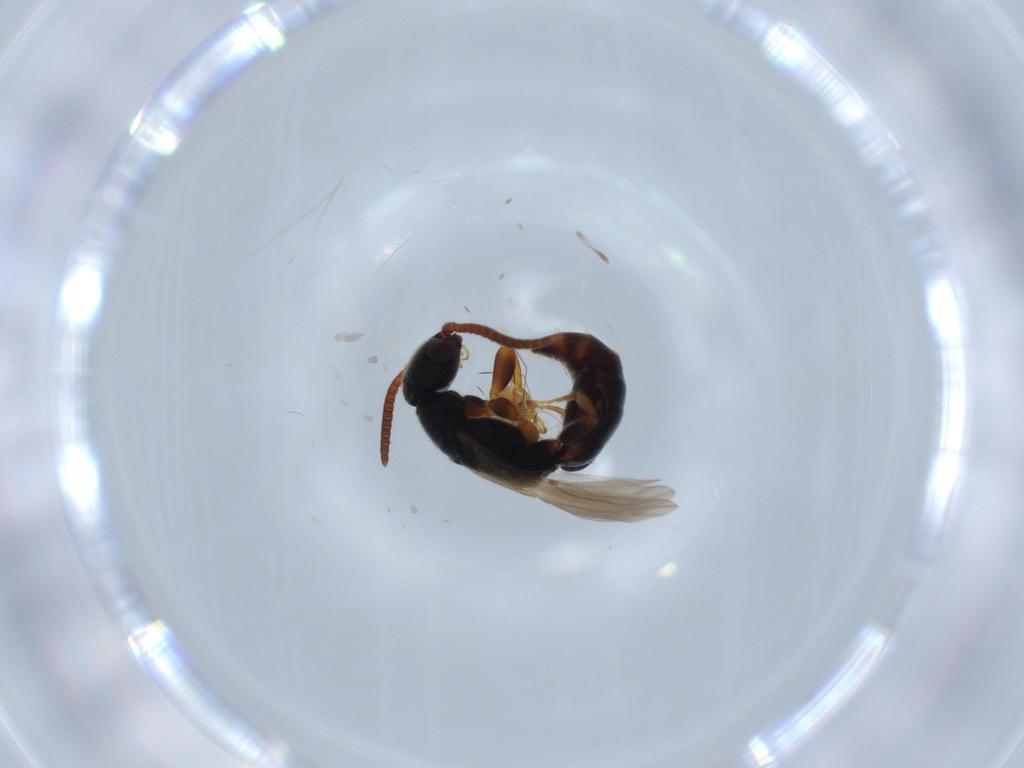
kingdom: Animalia
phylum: Arthropoda
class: Insecta
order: Hymenoptera
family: Bethylidae
